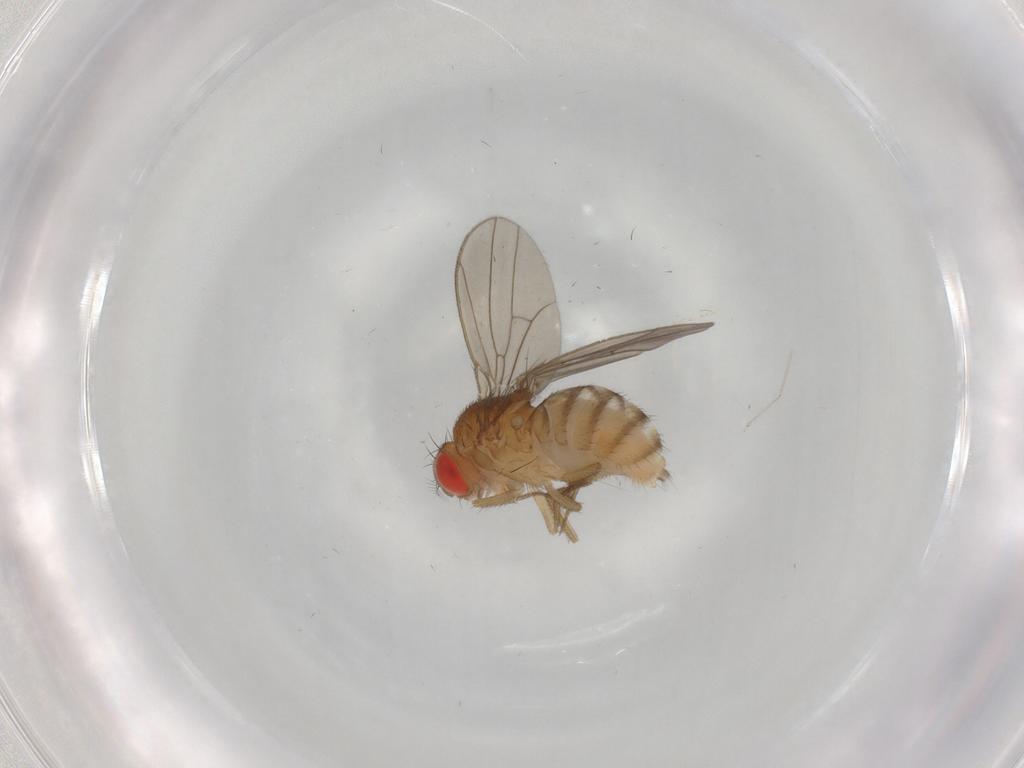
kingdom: Animalia
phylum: Arthropoda
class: Insecta
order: Diptera
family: Drosophilidae
